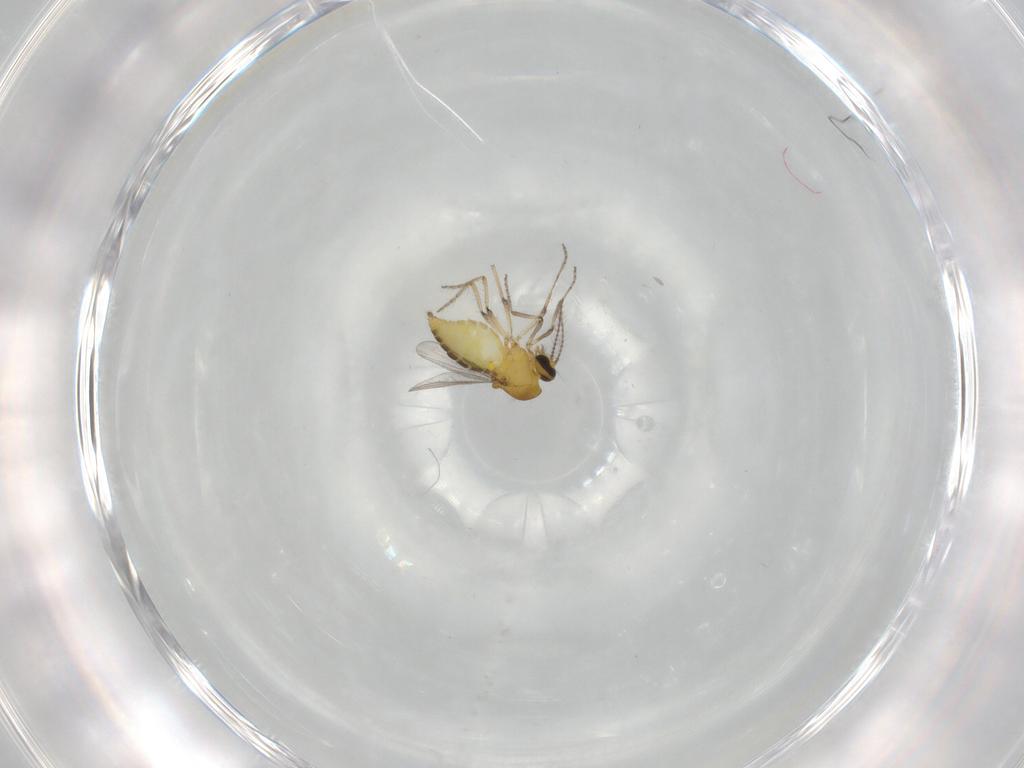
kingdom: Animalia
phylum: Arthropoda
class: Insecta
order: Diptera
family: Ceratopogonidae
